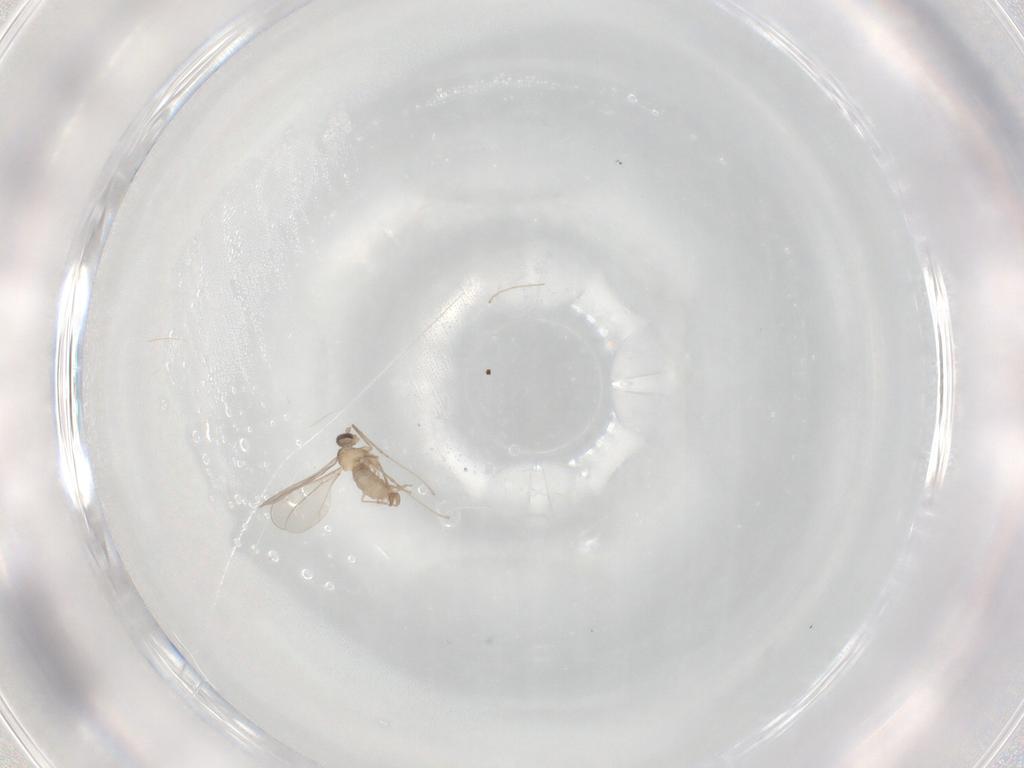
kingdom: Animalia
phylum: Arthropoda
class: Insecta
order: Diptera
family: Cecidomyiidae
